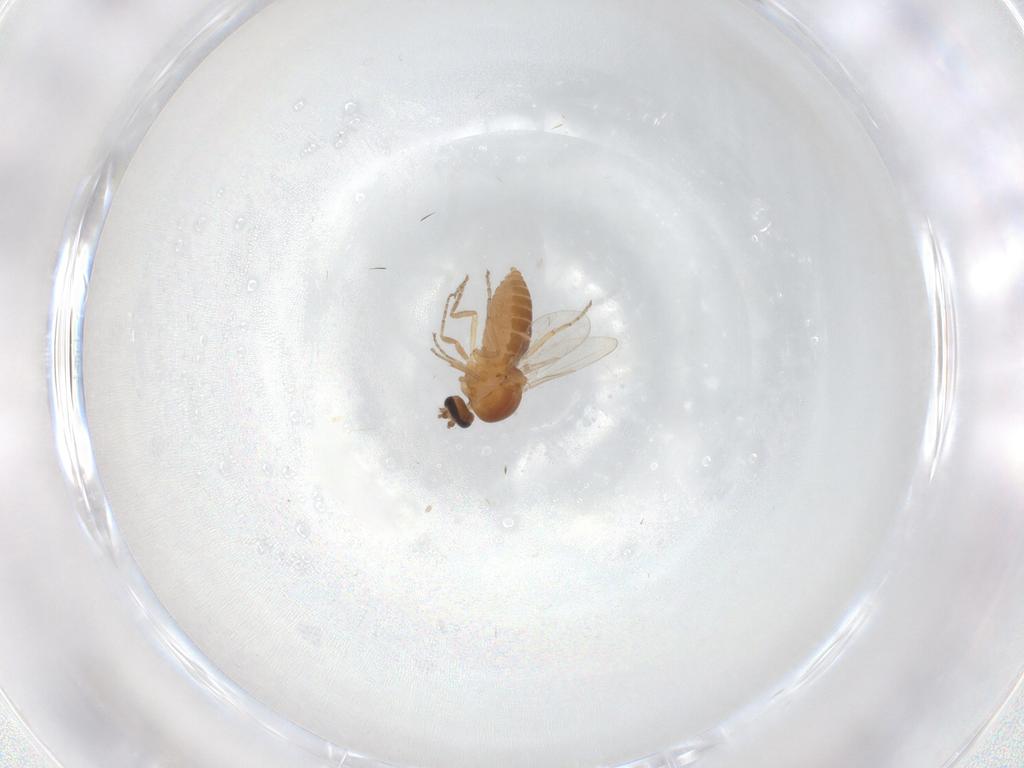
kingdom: Animalia
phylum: Arthropoda
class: Insecta
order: Diptera
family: Ceratopogonidae
